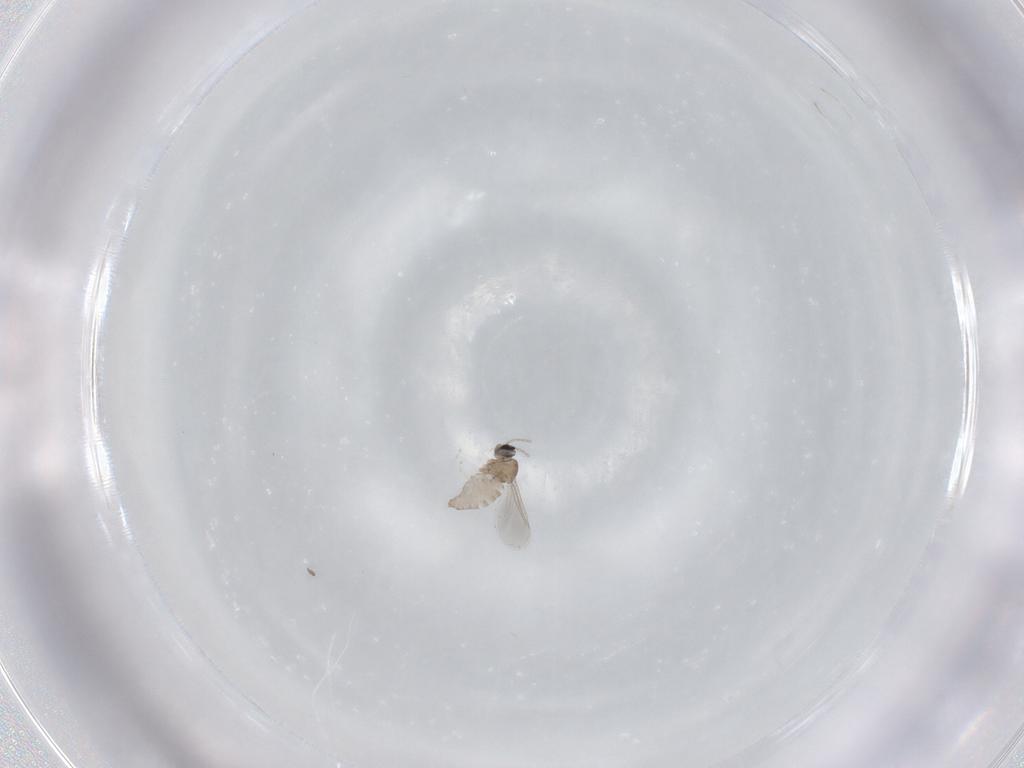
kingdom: Animalia
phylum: Arthropoda
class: Insecta
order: Diptera
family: Cecidomyiidae
